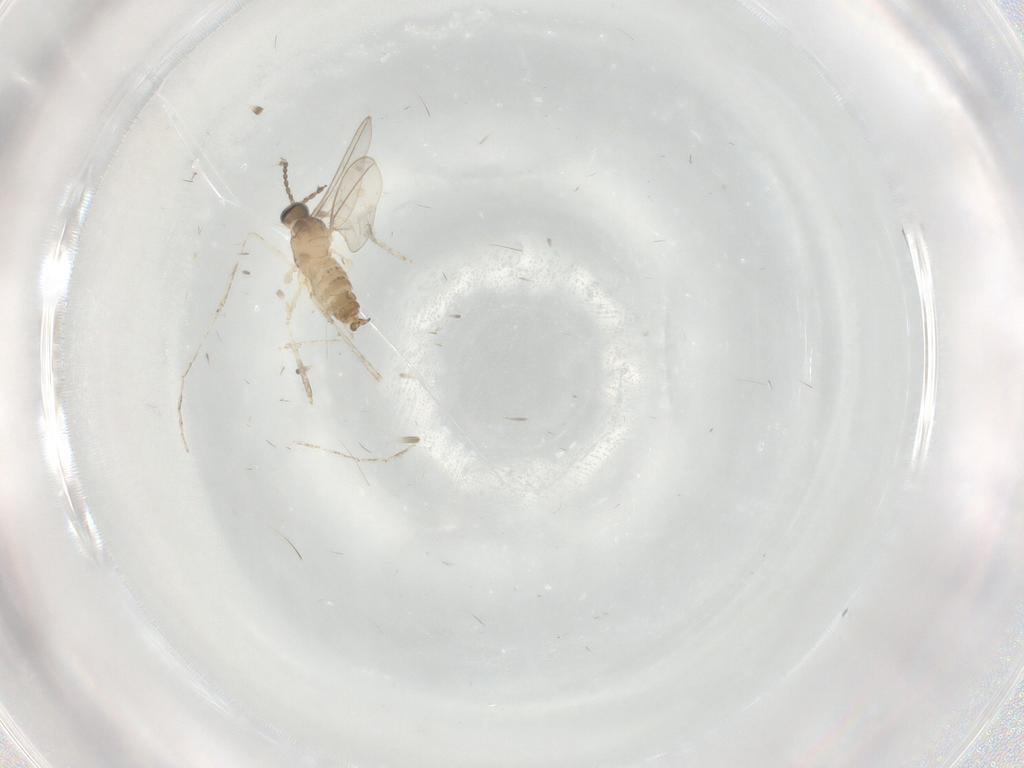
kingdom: Animalia
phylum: Arthropoda
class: Insecta
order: Diptera
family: Cecidomyiidae
